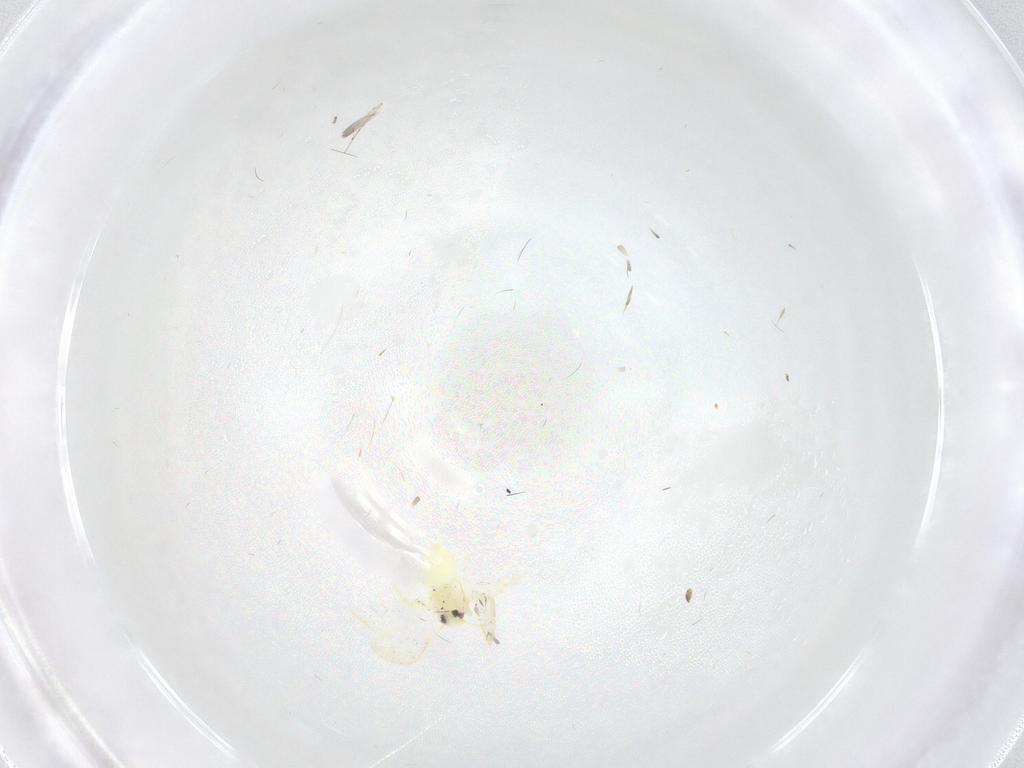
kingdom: Animalia
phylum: Arthropoda
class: Insecta
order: Hemiptera
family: Aleyrodidae
